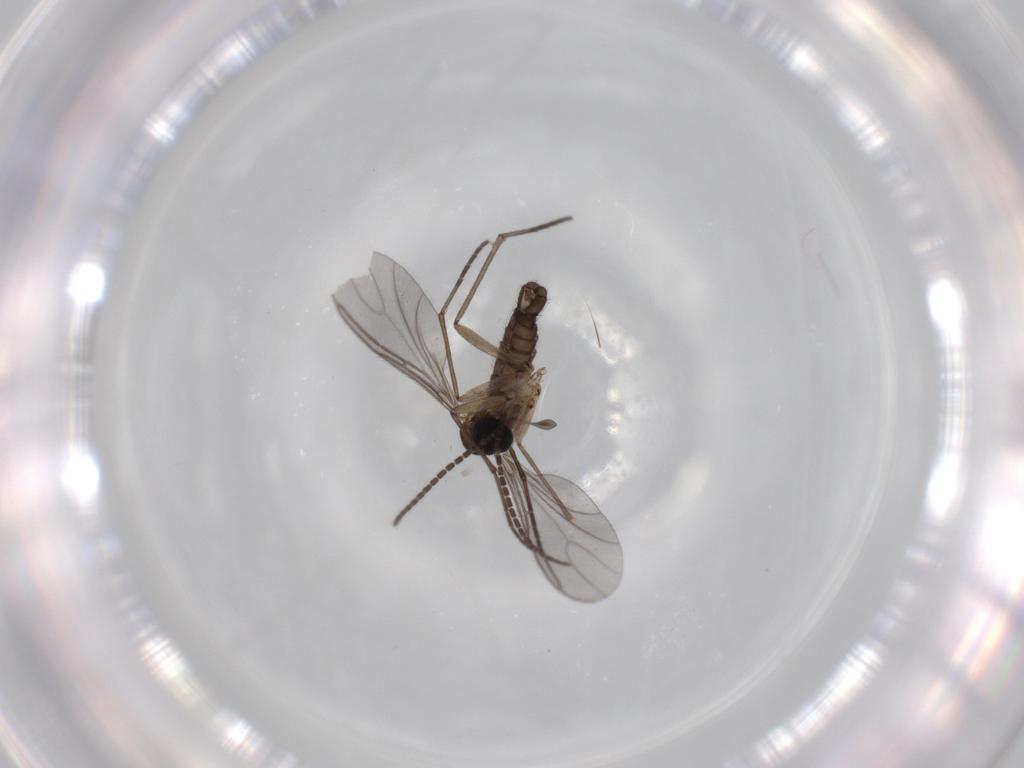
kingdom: Animalia
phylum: Arthropoda
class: Insecta
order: Diptera
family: Sciaridae
